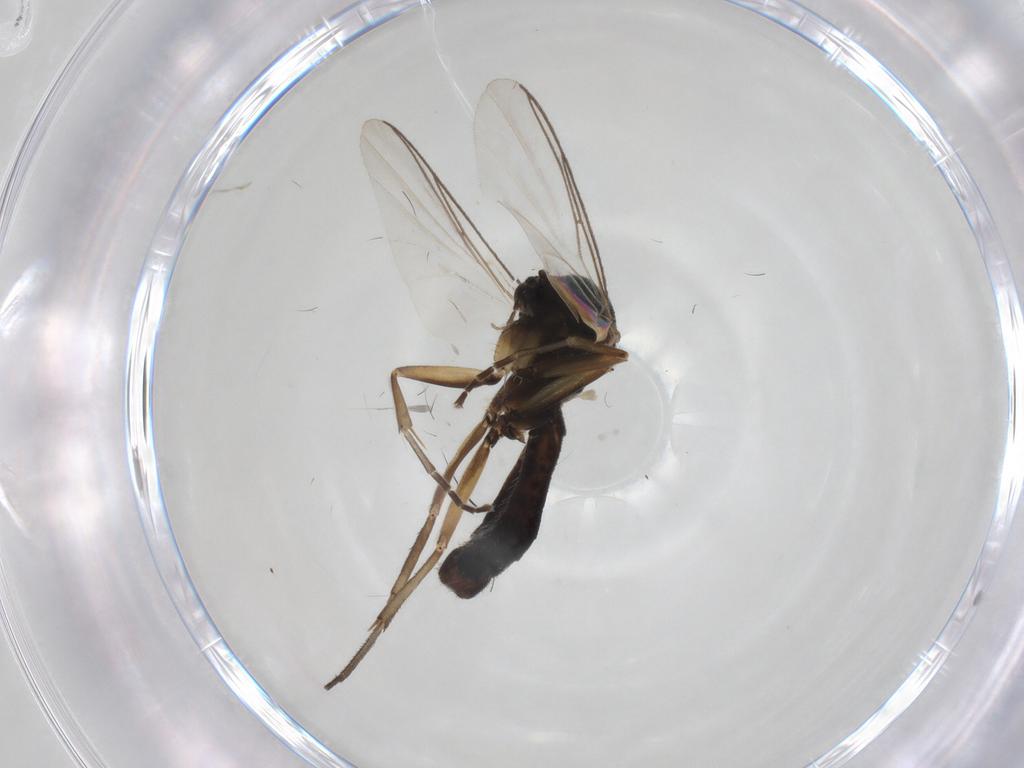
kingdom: Animalia
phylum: Arthropoda
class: Insecta
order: Diptera
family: Mycetophilidae
